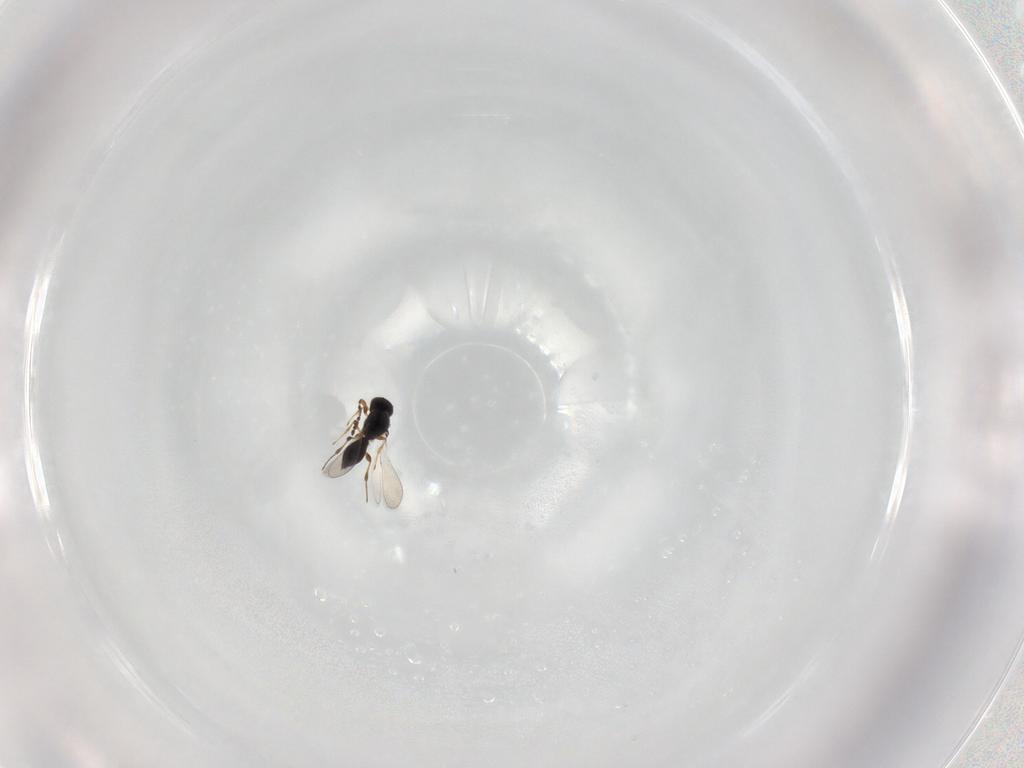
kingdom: Animalia
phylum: Arthropoda
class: Insecta
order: Hymenoptera
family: Platygastridae
